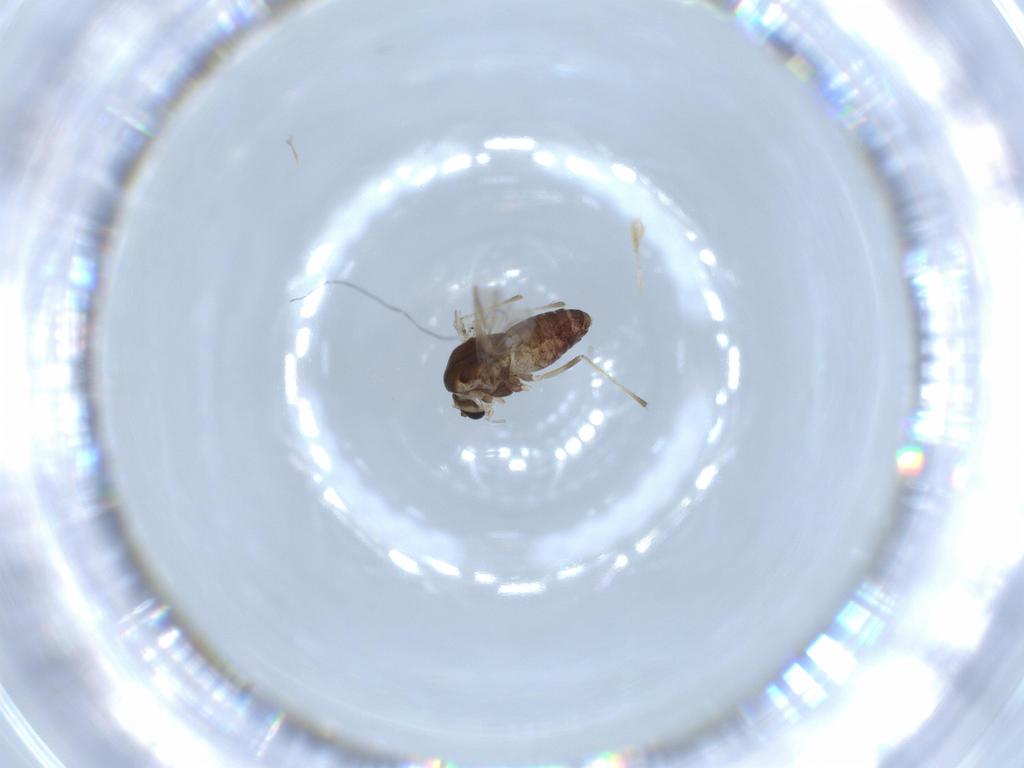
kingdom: Animalia
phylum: Arthropoda
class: Insecta
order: Diptera
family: Chironomidae
